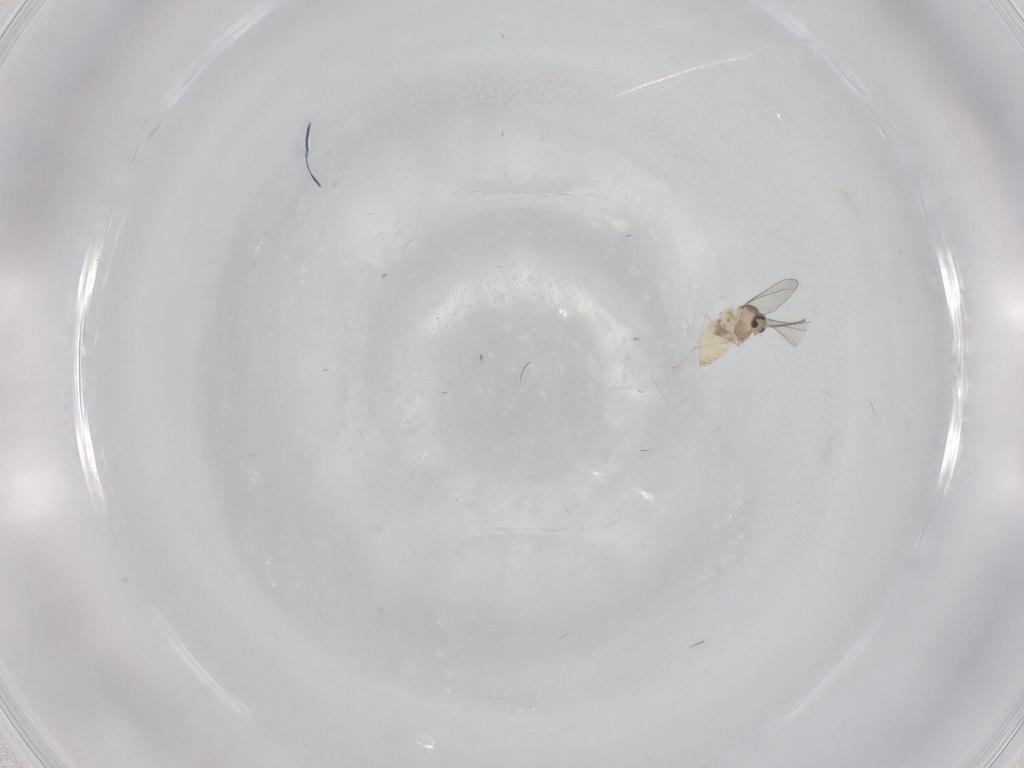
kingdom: Animalia
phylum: Arthropoda
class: Insecta
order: Diptera
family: Cecidomyiidae
